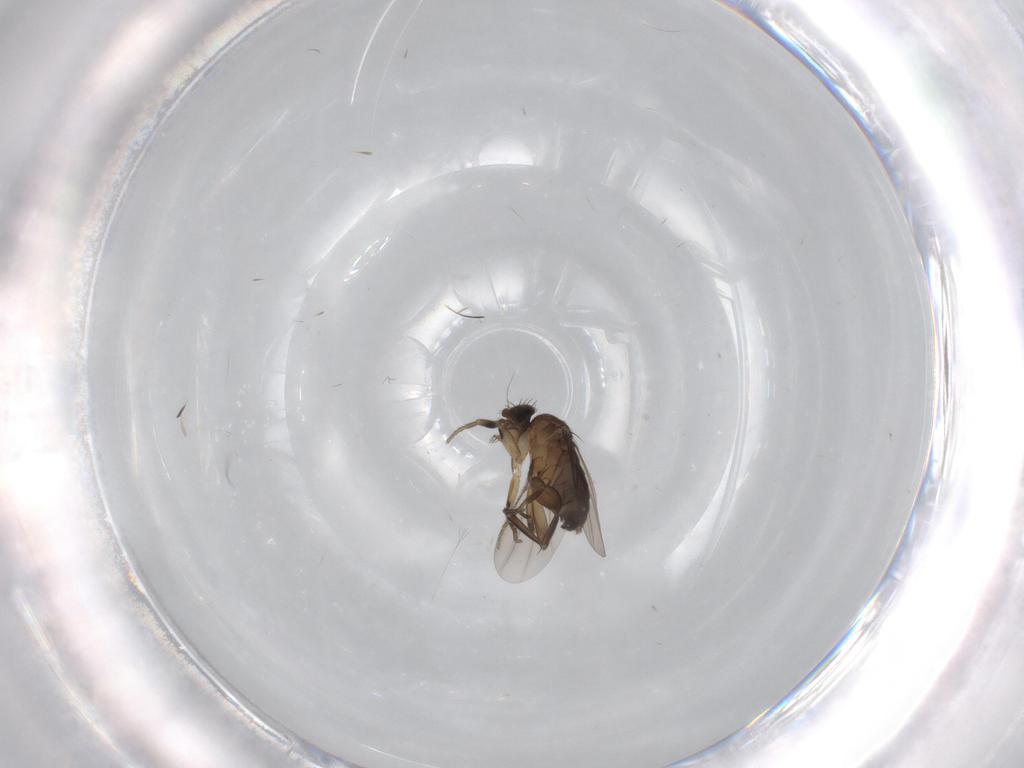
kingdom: Animalia
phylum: Arthropoda
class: Insecta
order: Diptera
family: Phoridae
